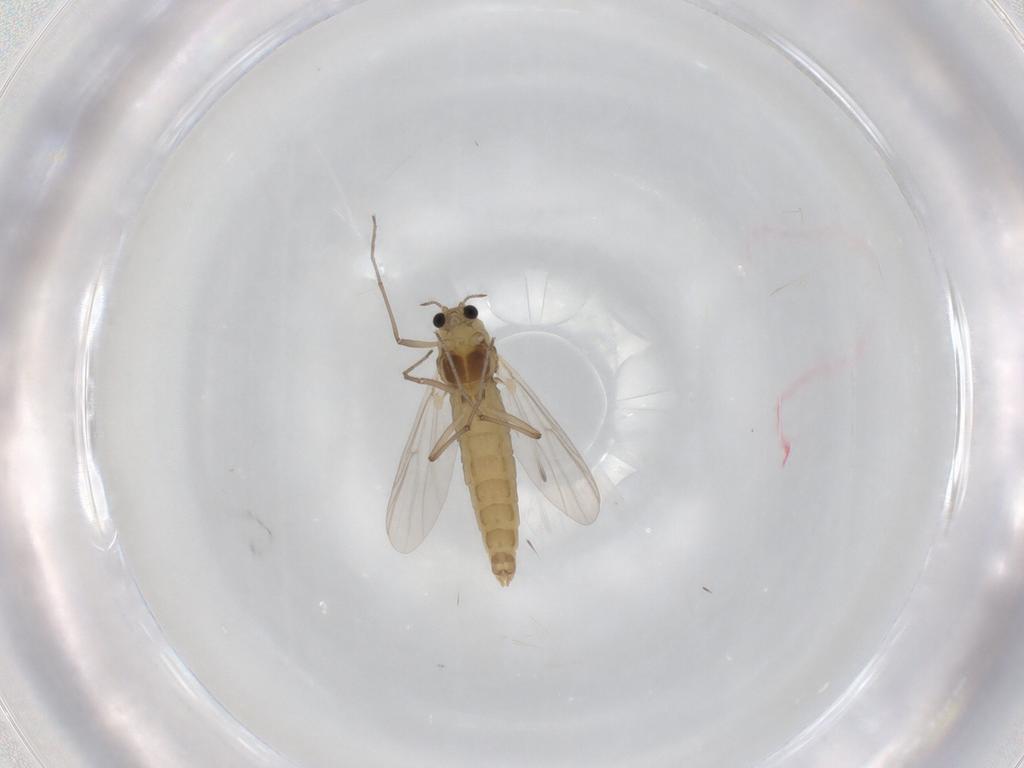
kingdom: Animalia
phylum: Arthropoda
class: Insecta
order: Diptera
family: Chironomidae
